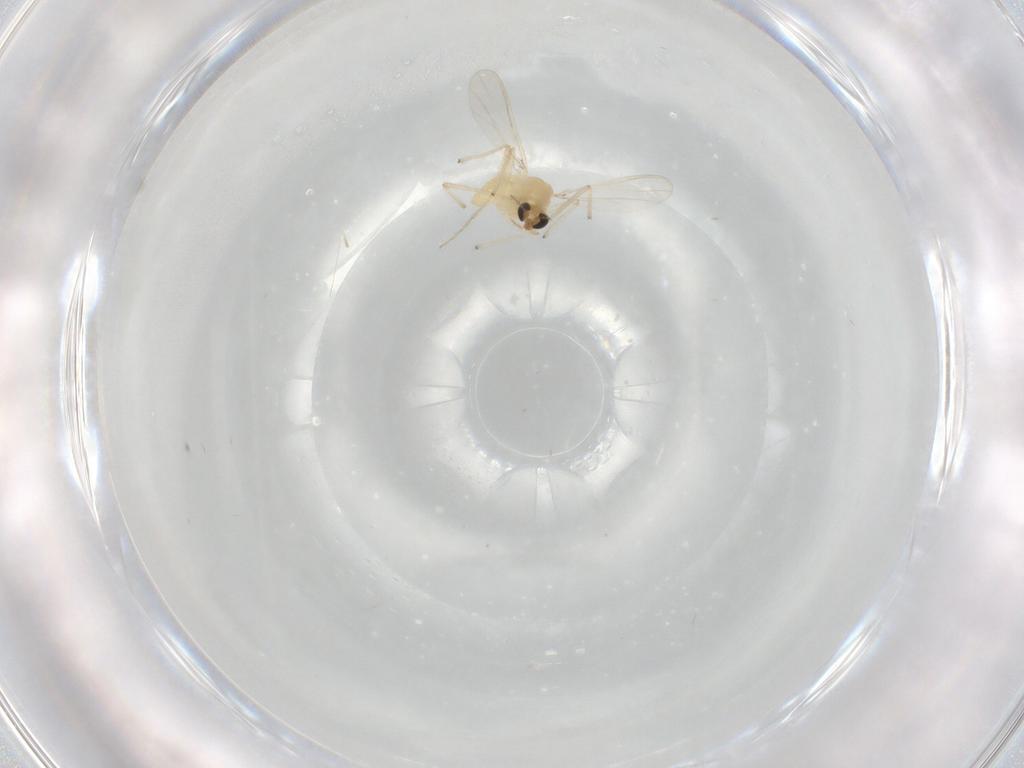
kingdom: Animalia
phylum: Arthropoda
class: Insecta
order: Diptera
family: Chironomidae
